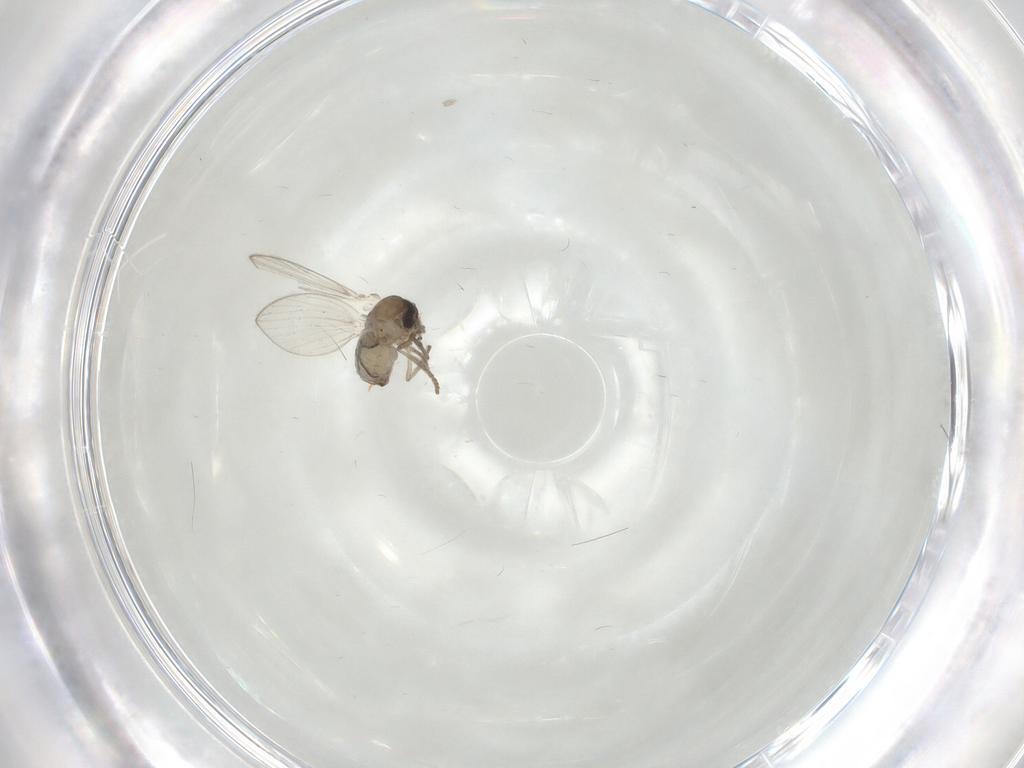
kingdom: Animalia
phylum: Arthropoda
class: Insecta
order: Diptera
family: Psychodidae
